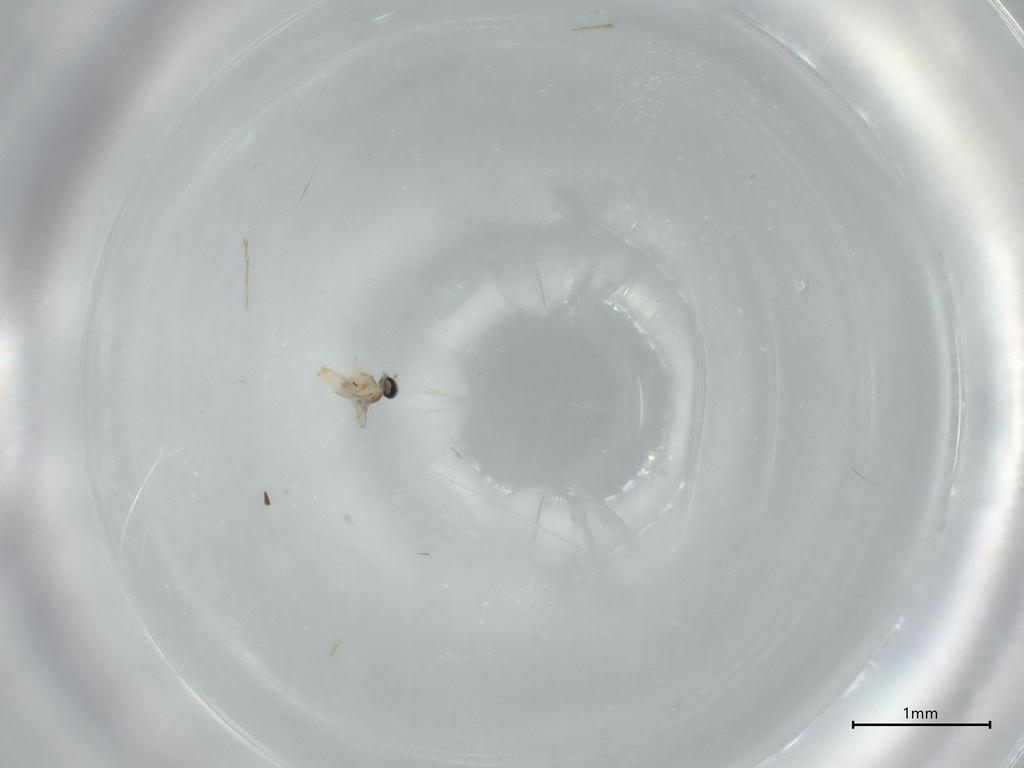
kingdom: Animalia
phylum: Arthropoda
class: Insecta
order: Diptera
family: Cecidomyiidae
